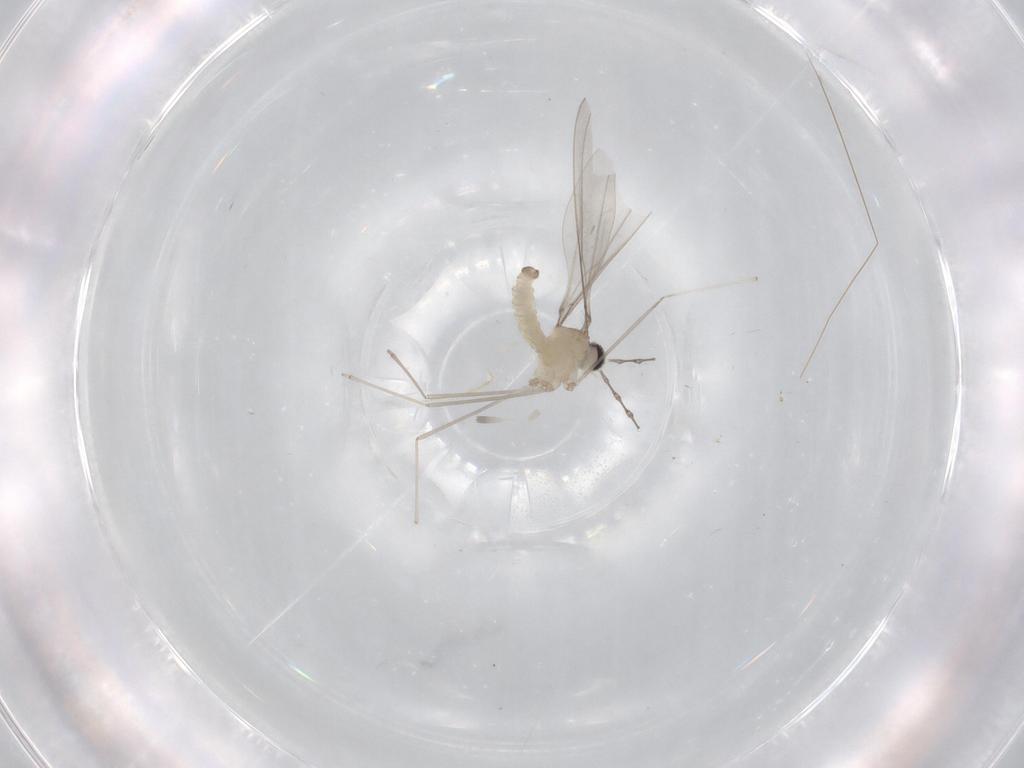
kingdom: Animalia
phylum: Arthropoda
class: Insecta
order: Diptera
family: Cecidomyiidae
